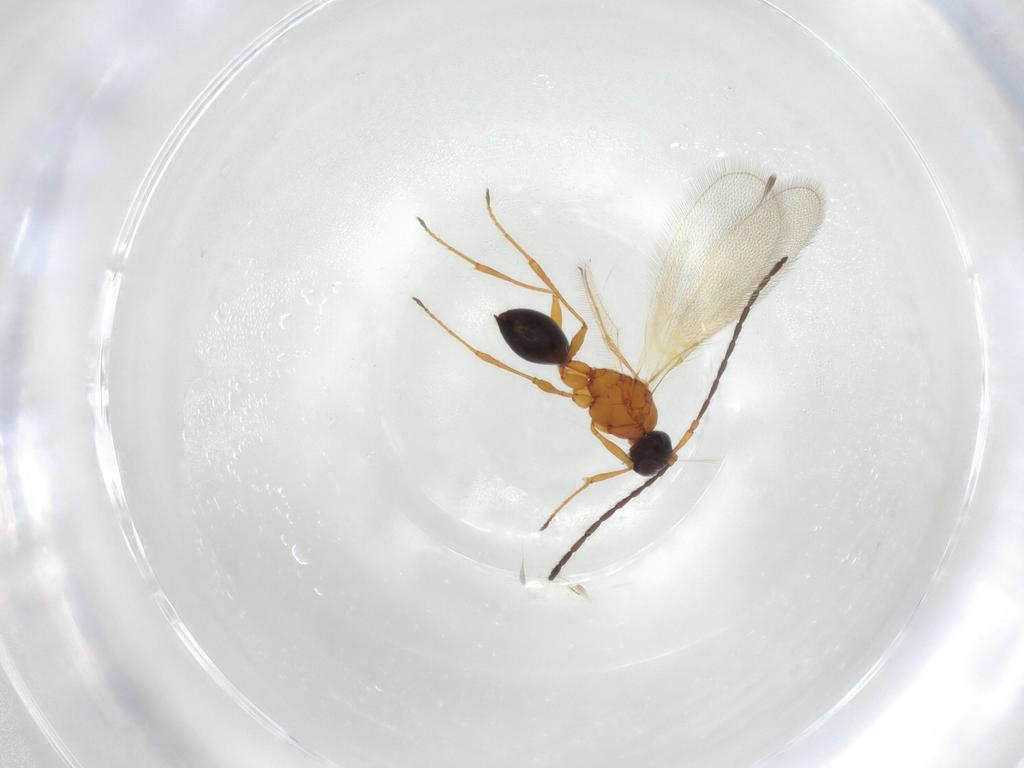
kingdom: Animalia
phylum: Arthropoda
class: Insecta
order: Hymenoptera
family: Diapriidae
